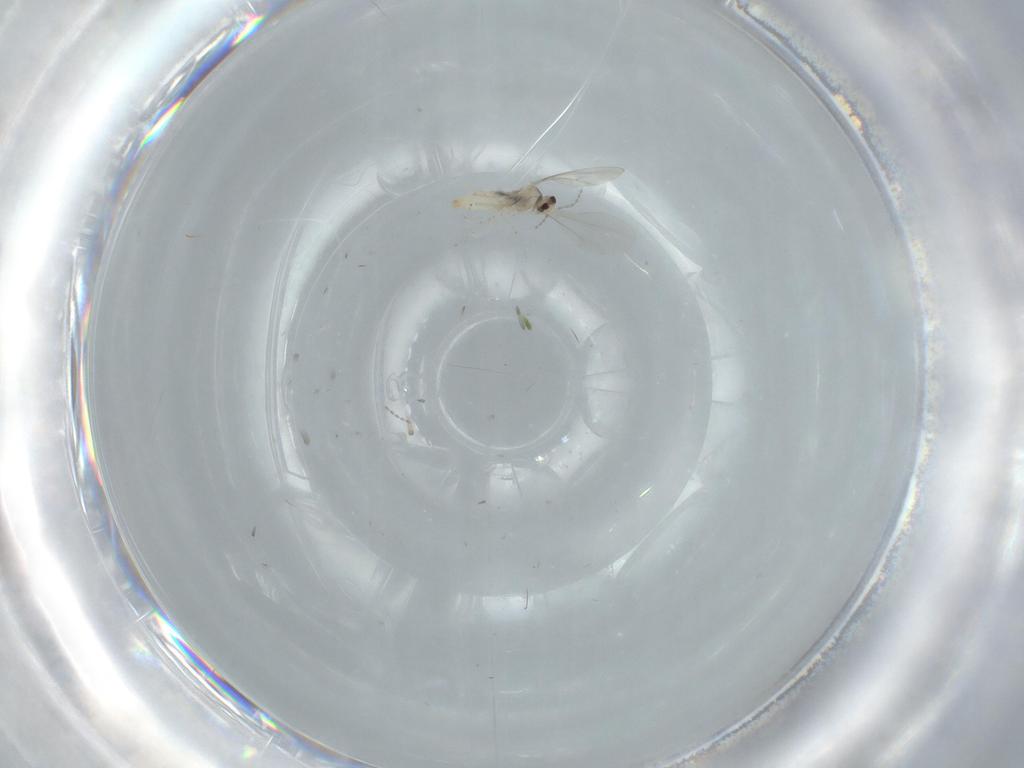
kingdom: Animalia
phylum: Arthropoda
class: Insecta
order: Diptera
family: Cecidomyiidae
